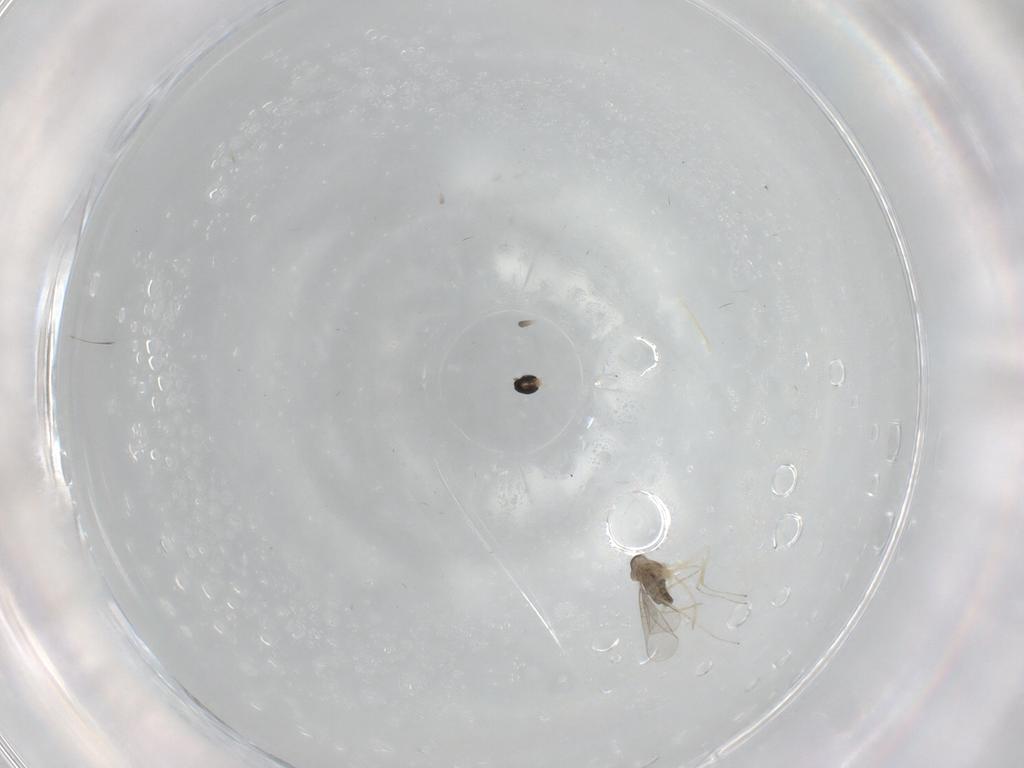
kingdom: Animalia
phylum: Arthropoda
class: Insecta
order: Diptera
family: Cecidomyiidae
